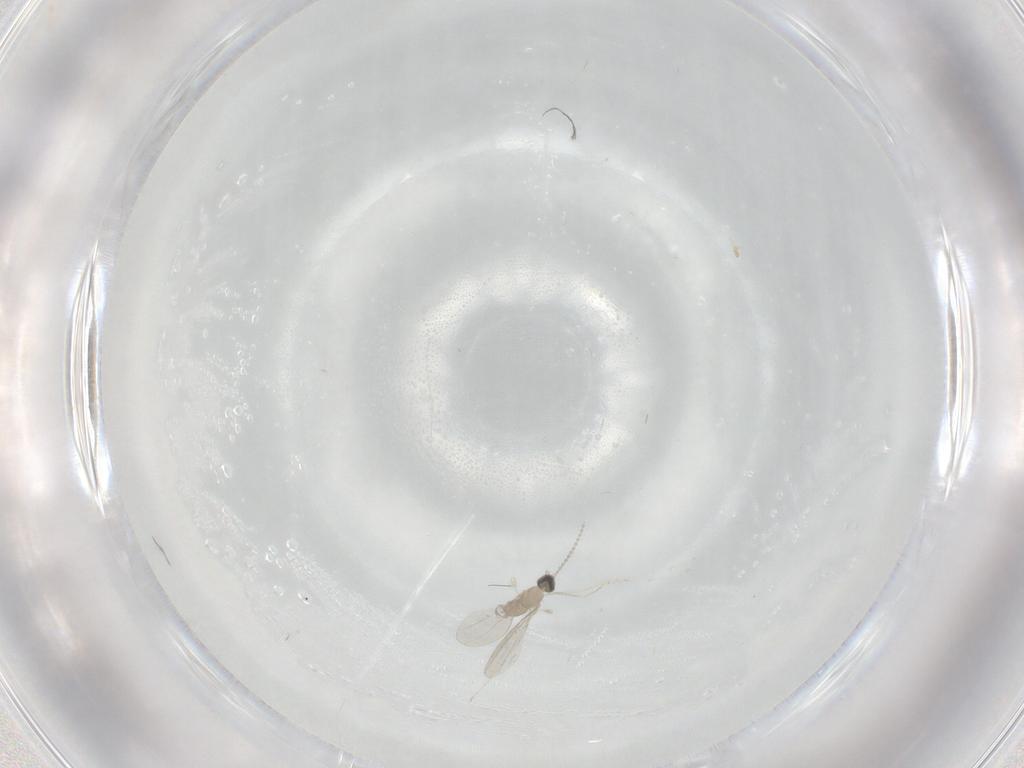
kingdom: Animalia
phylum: Arthropoda
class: Insecta
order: Diptera
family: Cecidomyiidae
